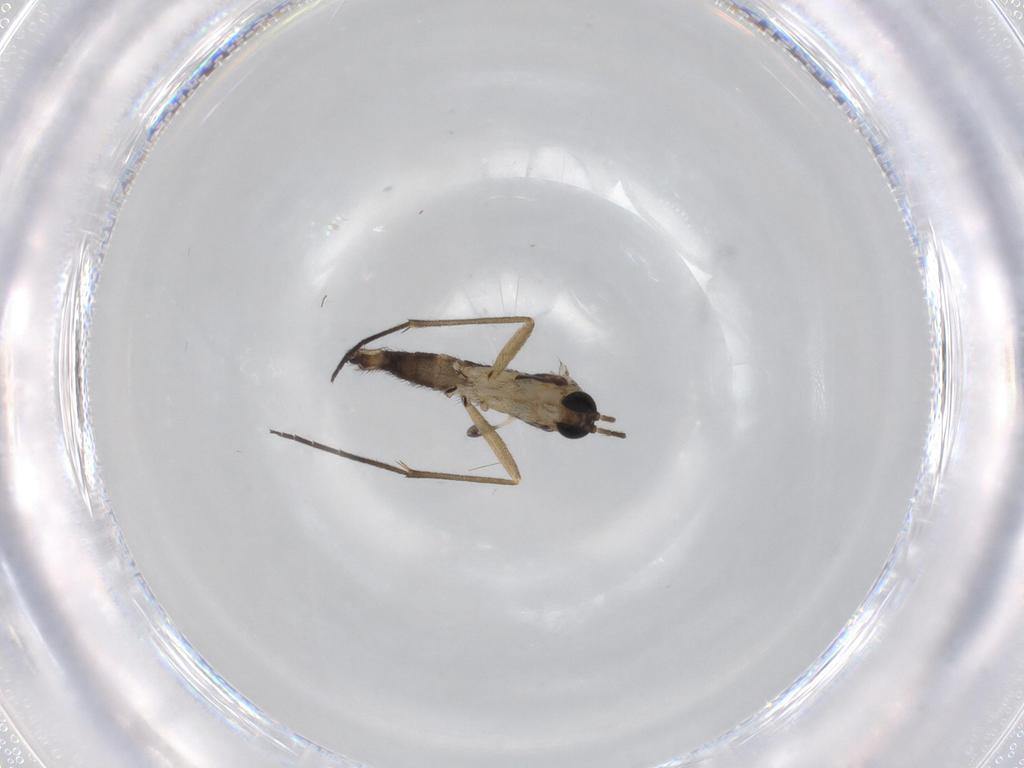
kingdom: Animalia
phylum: Arthropoda
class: Insecta
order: Diptera
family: Sciaridae
